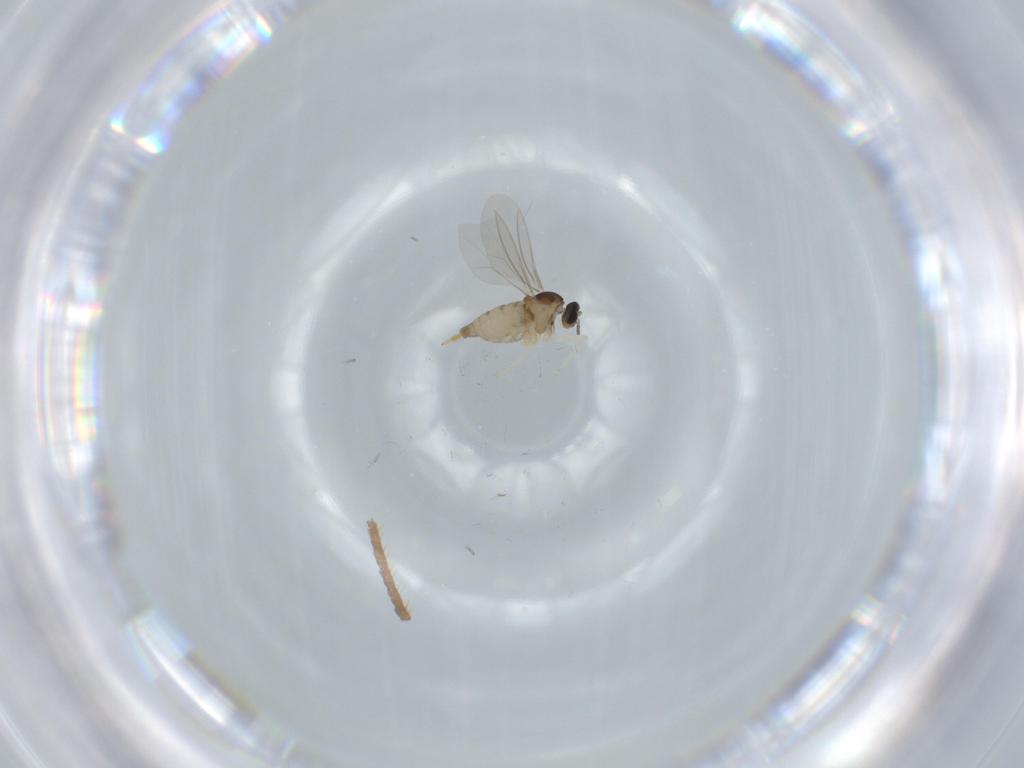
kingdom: Animalia
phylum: Arthropoda
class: Insecta
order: Diptera
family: Cecidomyiidae
